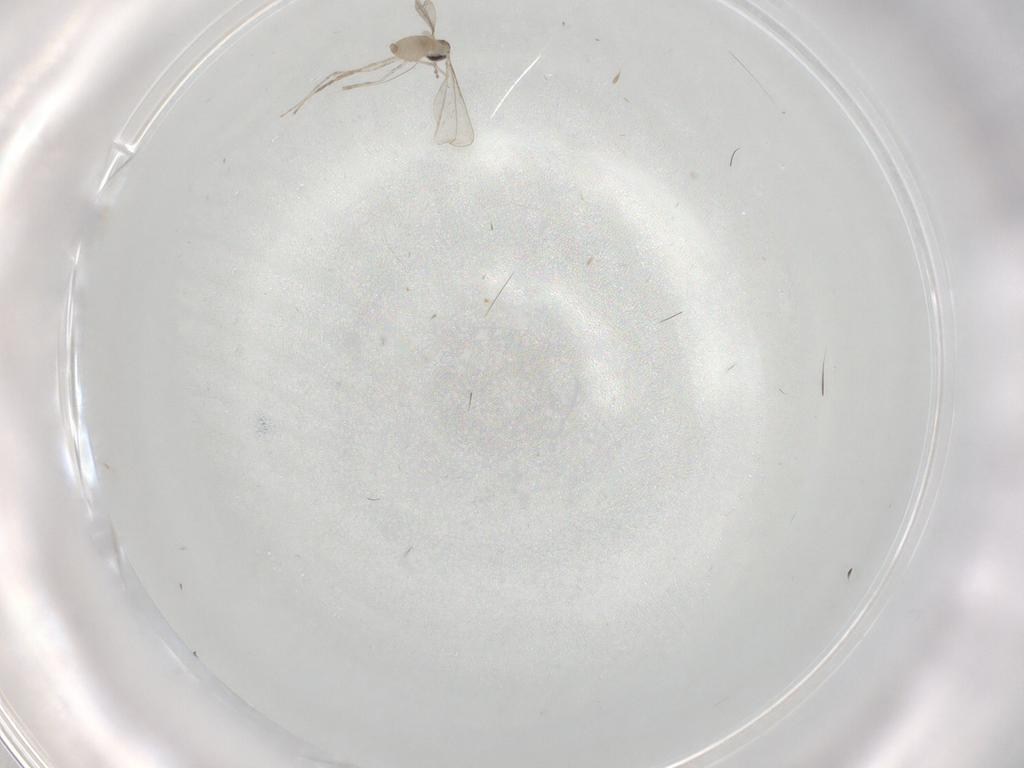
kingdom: Animalia
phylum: Arthropoda
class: Insecta
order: Diptera
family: Cecidomyiidae
